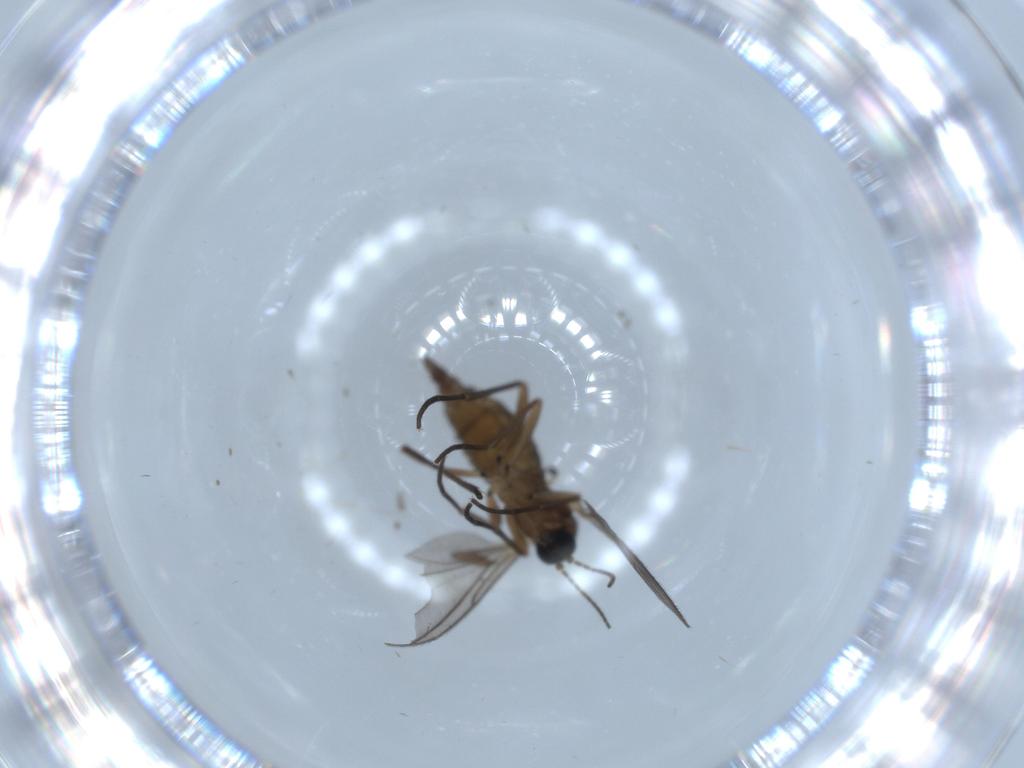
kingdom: Animalia
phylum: Arthropoda
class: Insecta
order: Diptera
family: Sciaridae
